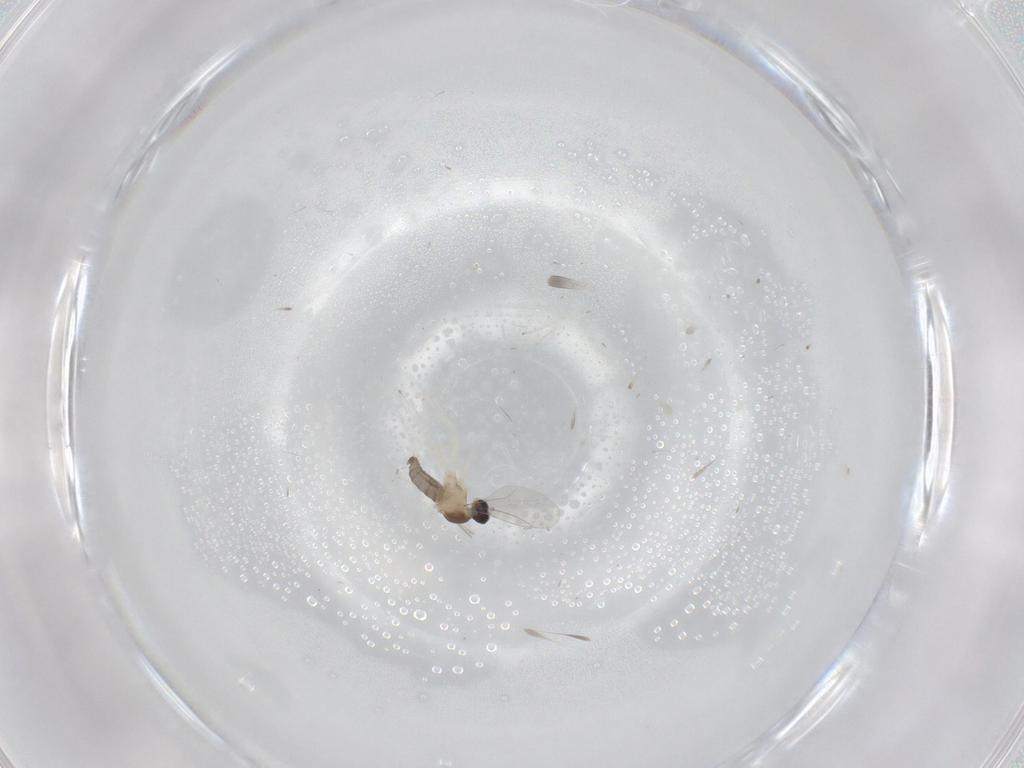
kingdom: Animalia
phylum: Arthropoda
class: Insecta
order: Diptera
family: Cecidomyiidae
